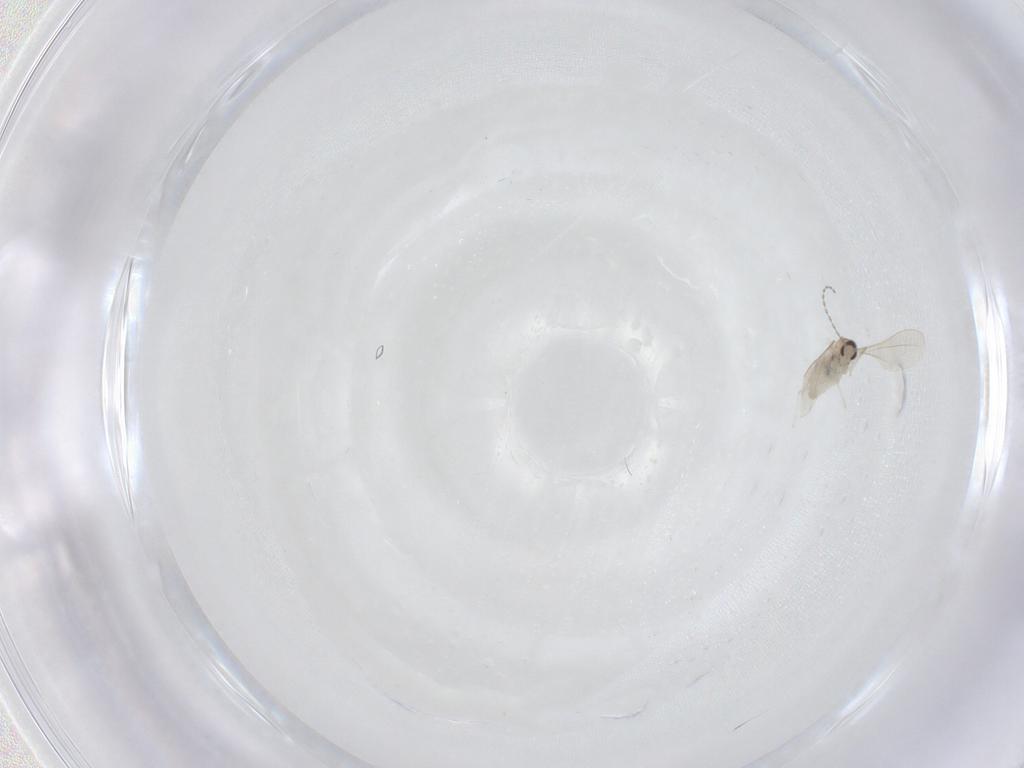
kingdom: Animalia
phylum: Arthropoda
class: Insecta
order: Diptera
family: Cecidomyiidae
